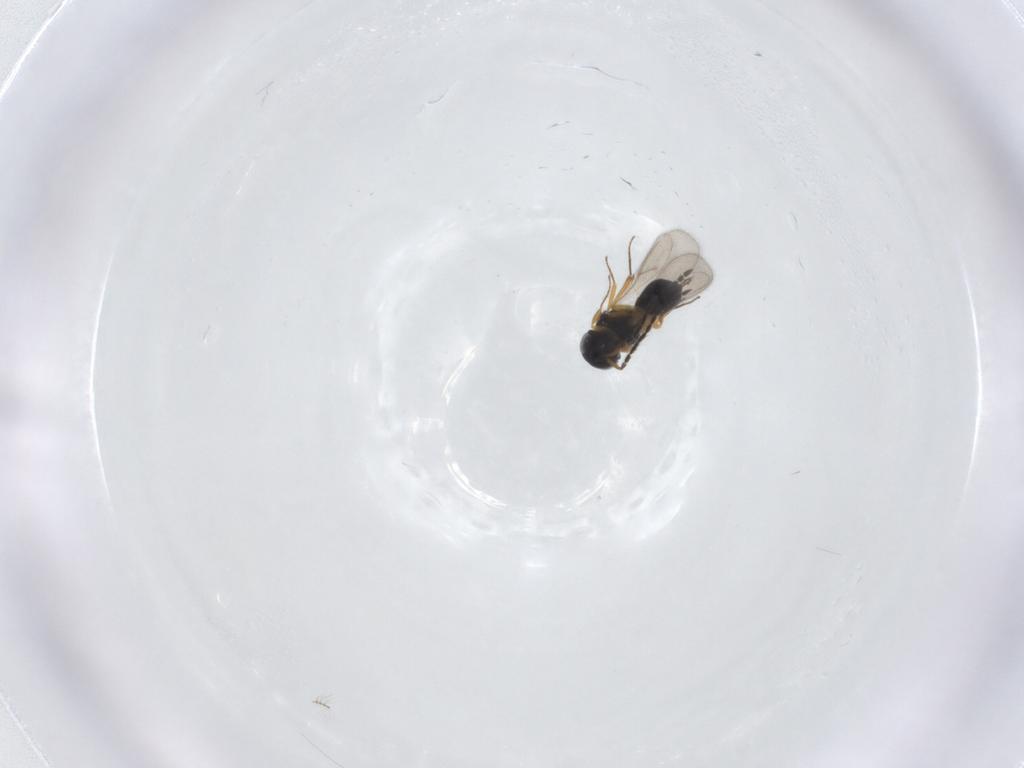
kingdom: Animalia
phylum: Arthropoda
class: Insecta
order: Hymenoptera
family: Scelionidae
